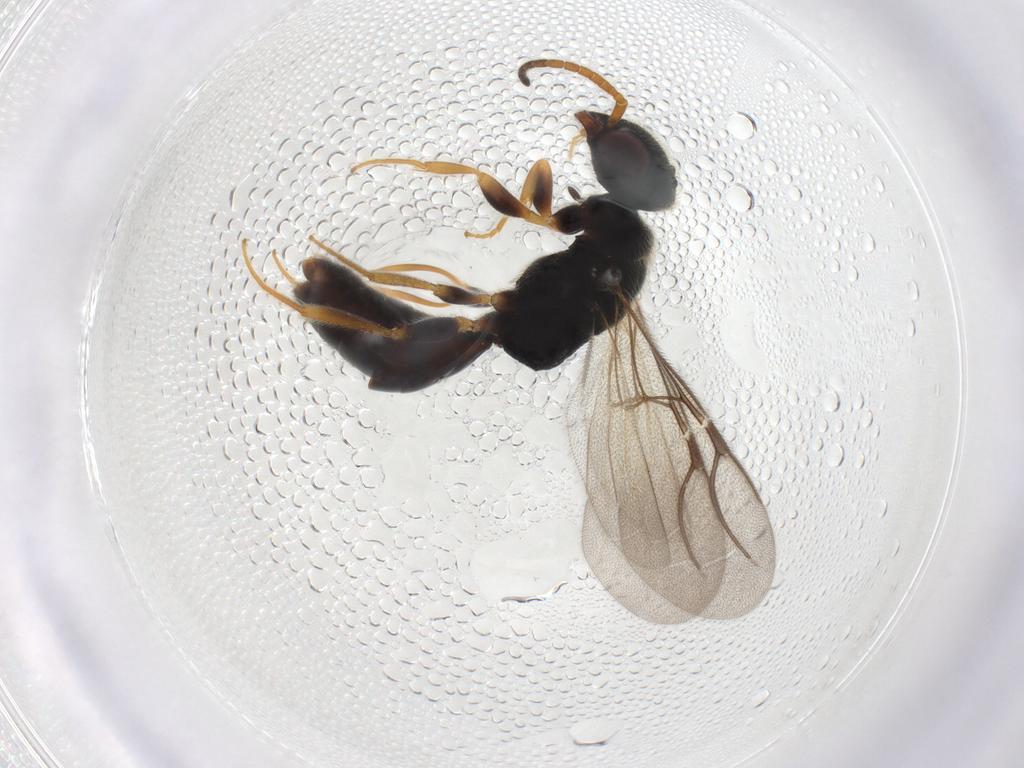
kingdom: Animalia
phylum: Arthropoda
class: Insecta
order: Hymenoptera
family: Bethylidae
